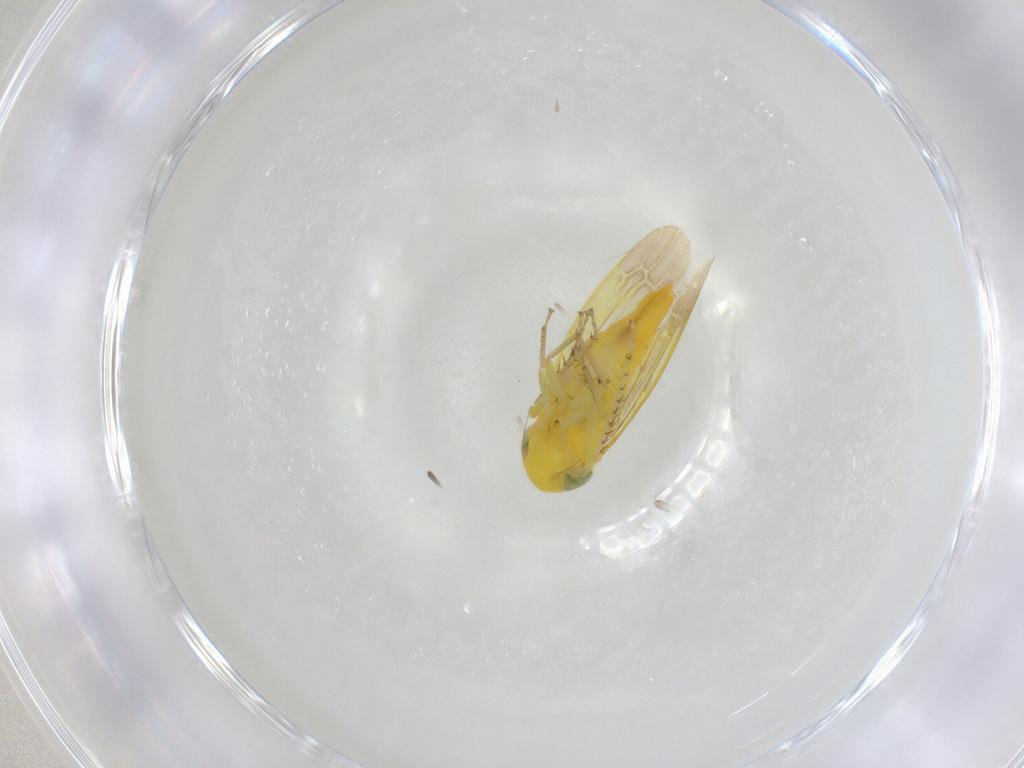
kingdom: Animalia
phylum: Arthropoda
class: Insecta
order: Hemiptera
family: Cicadellidae
